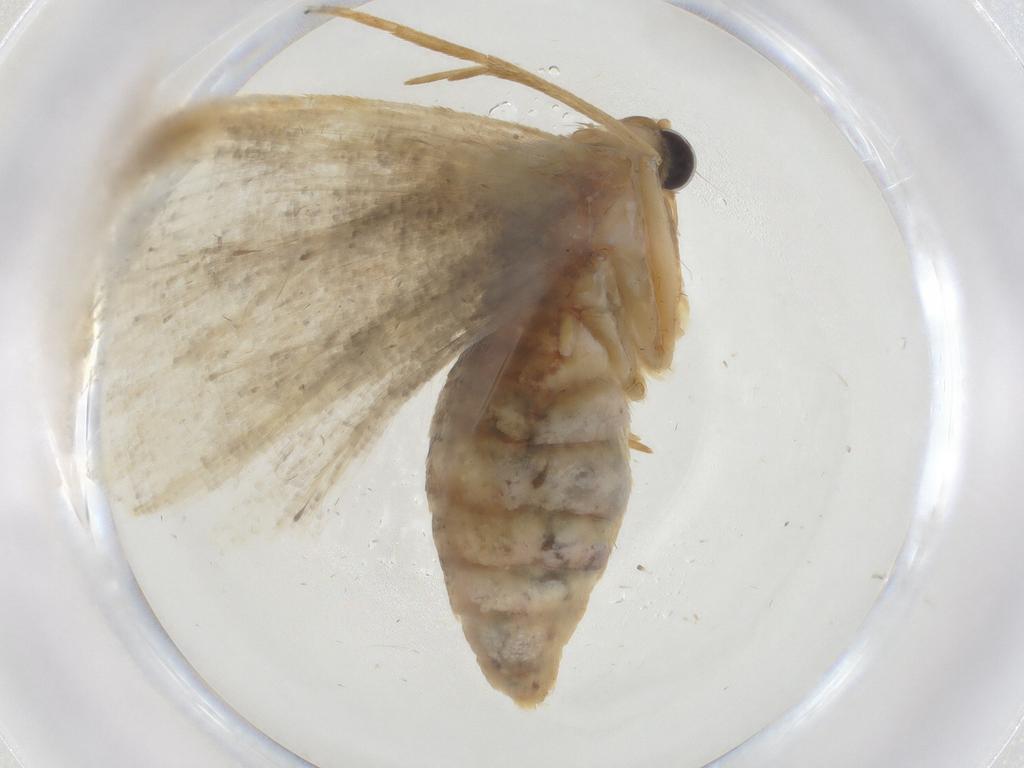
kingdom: Animalia
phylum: Arthropoda
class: Insecta
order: Lepidoptera
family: Geometridae
